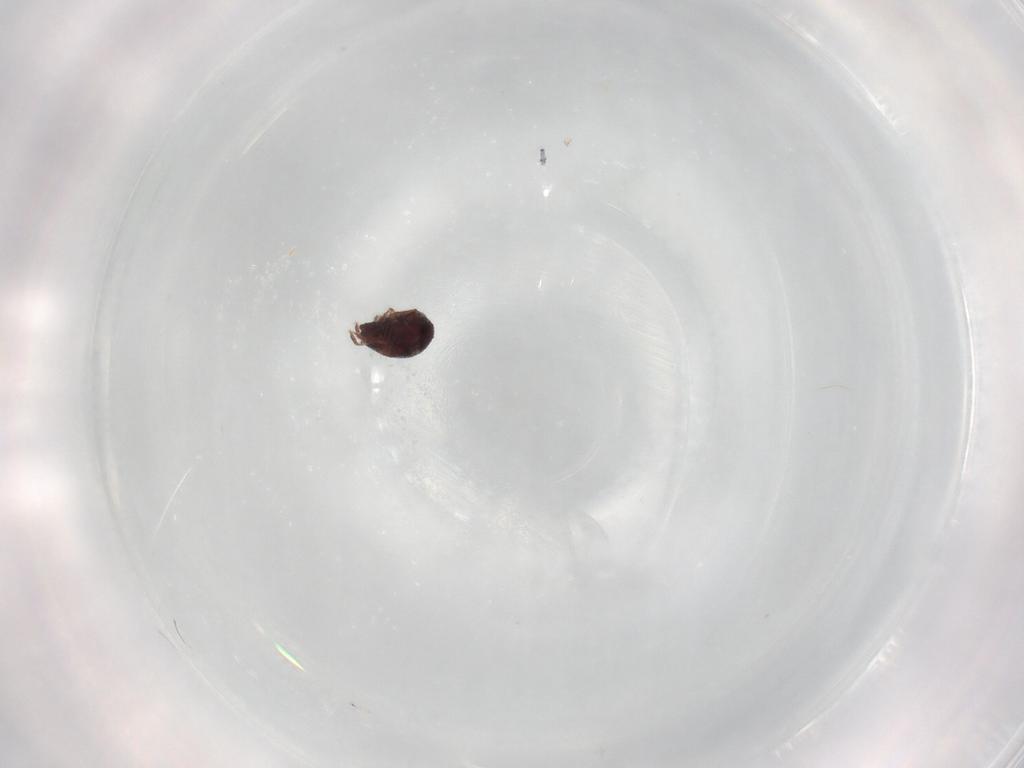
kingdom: Animalia
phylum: Arthropoda
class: Arachnida
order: Sarcoptiformes
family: Humerobatidae
